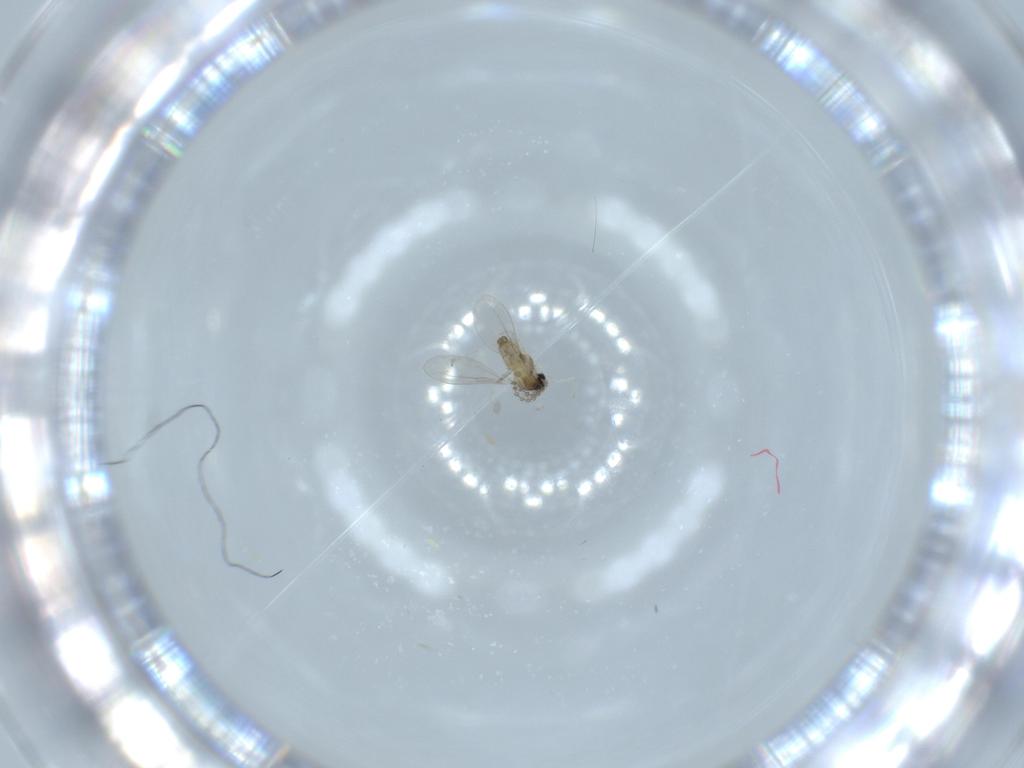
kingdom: Animalia
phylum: Arthropoda
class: Insecta
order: Diptera
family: Cecidomyiidae
